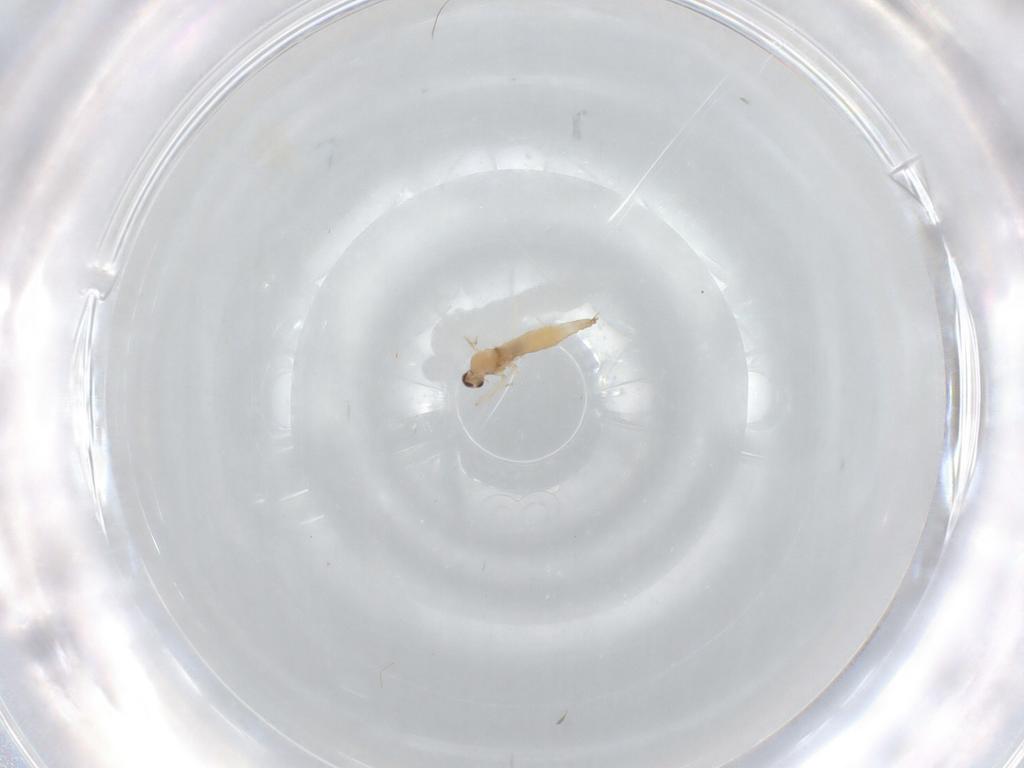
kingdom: Animalia
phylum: Arthropoda
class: Insecta
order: Diptera
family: Cecidomyiidae
